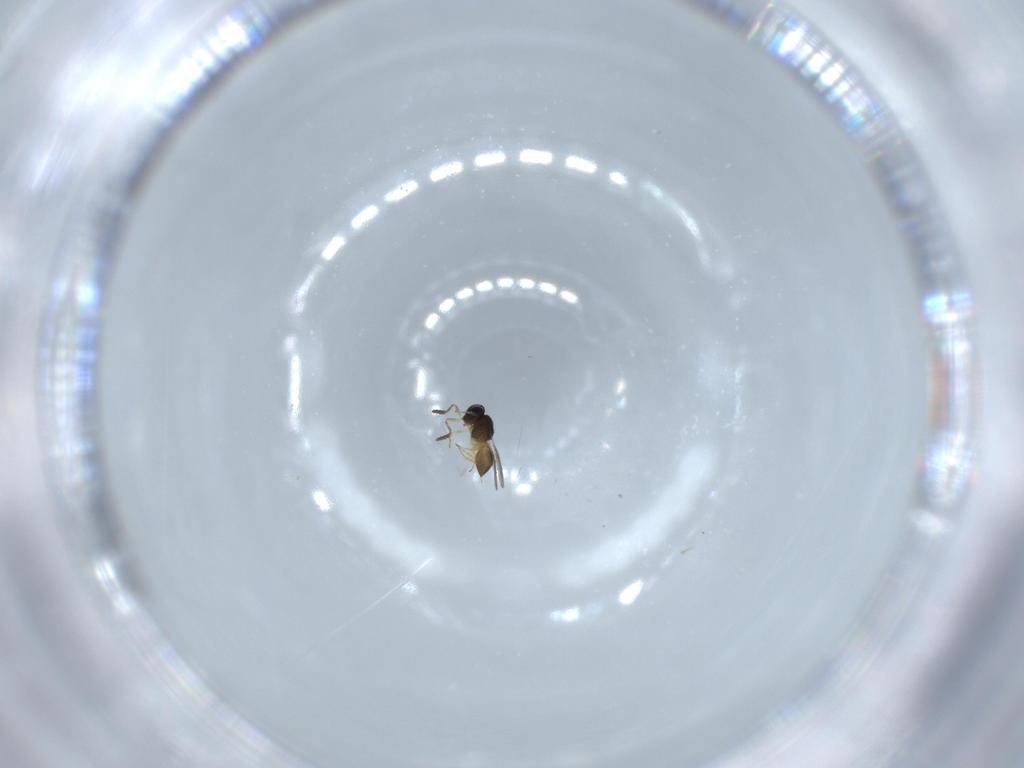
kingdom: Animalia
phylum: Arthropoda
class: Insecta
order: Hymenoptera
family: Scelionidae
